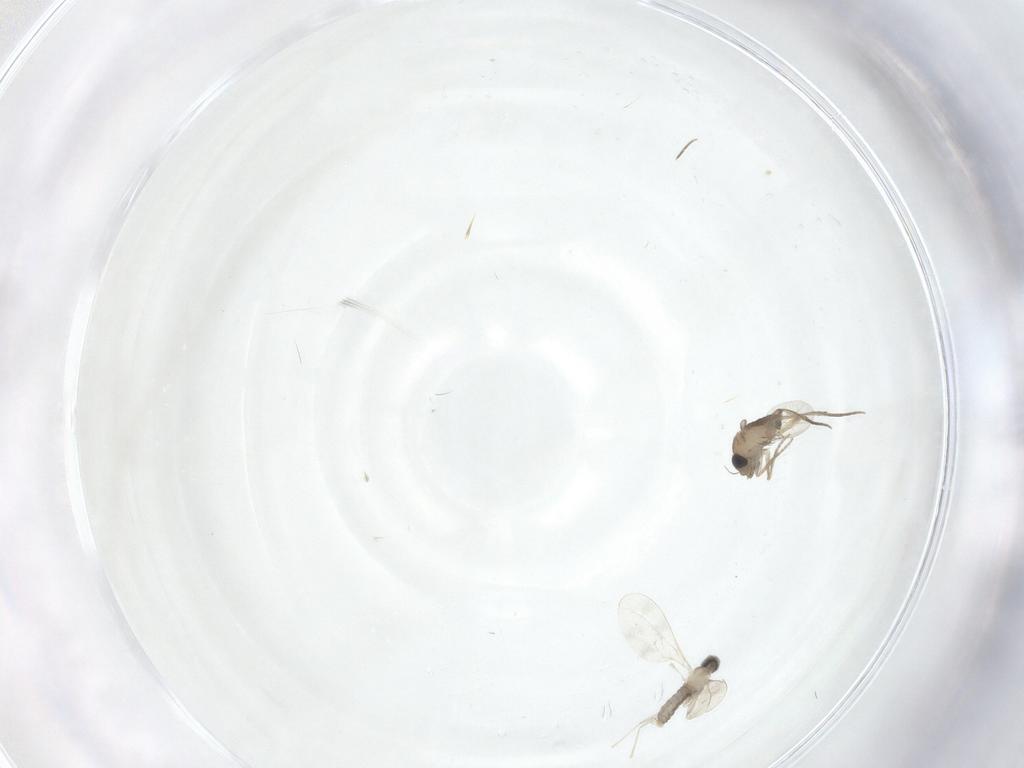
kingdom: Animalia
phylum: Arthropoda
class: Insecta
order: Diptera
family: Phoridae
